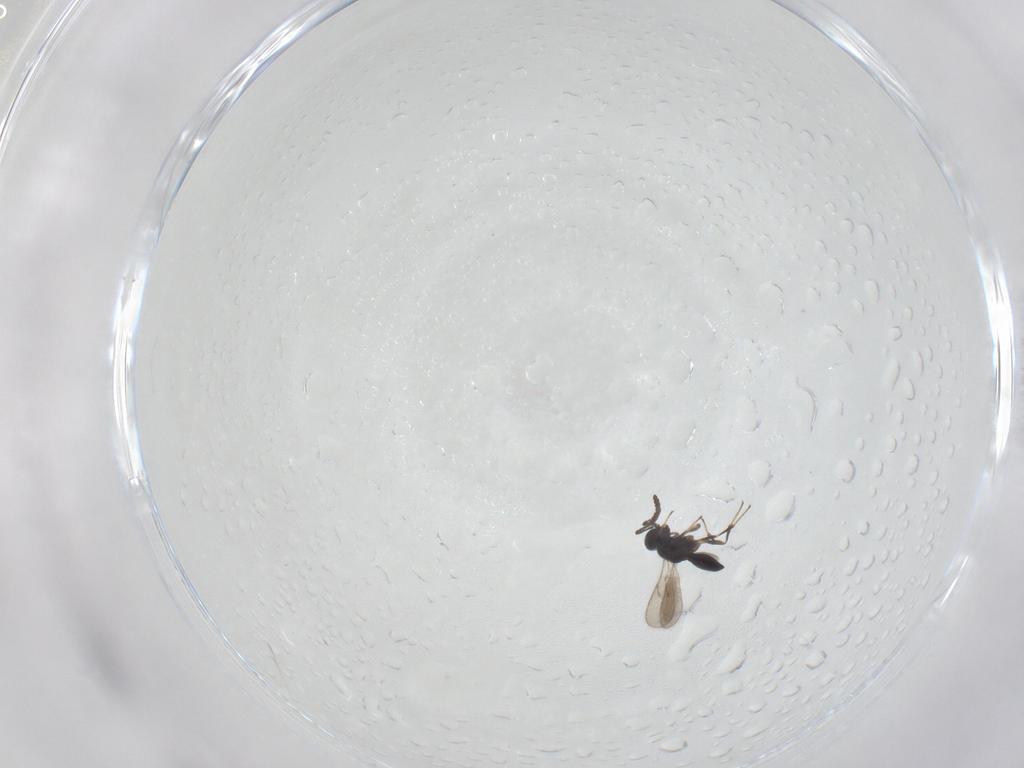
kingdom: Animalia
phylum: Arthropoda
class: Insecta
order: Hymenoptera
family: Scelionidae
